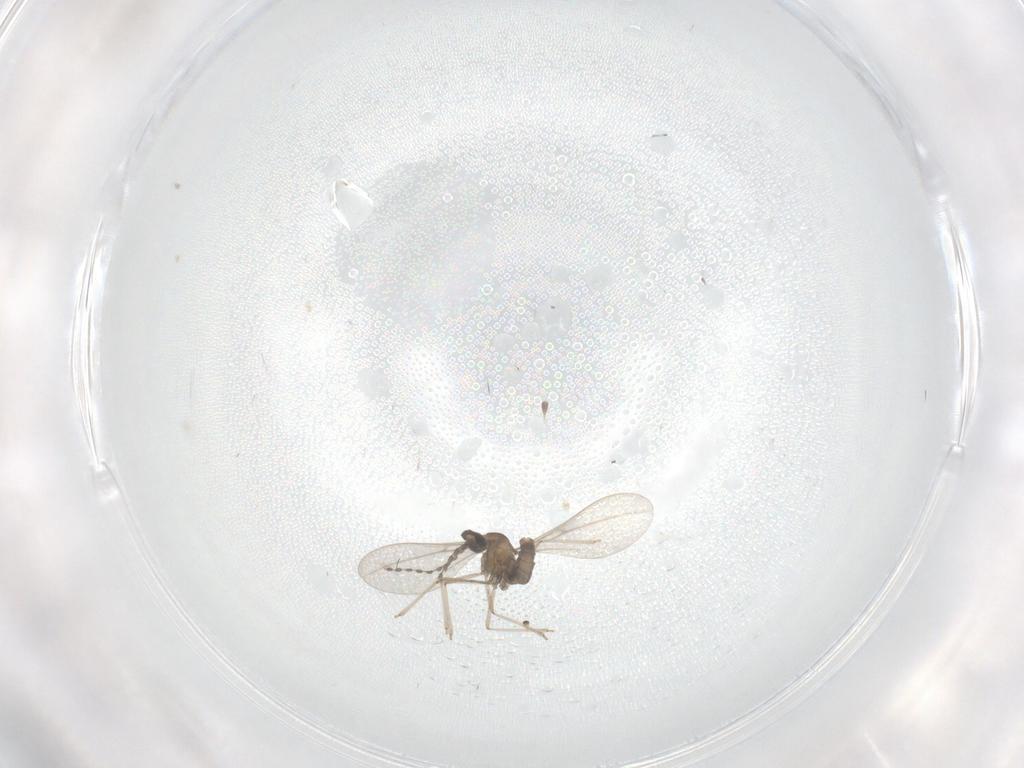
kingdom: Animalia
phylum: Arthropoda
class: Insecta
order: Diptera
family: Cecidomyiidae
